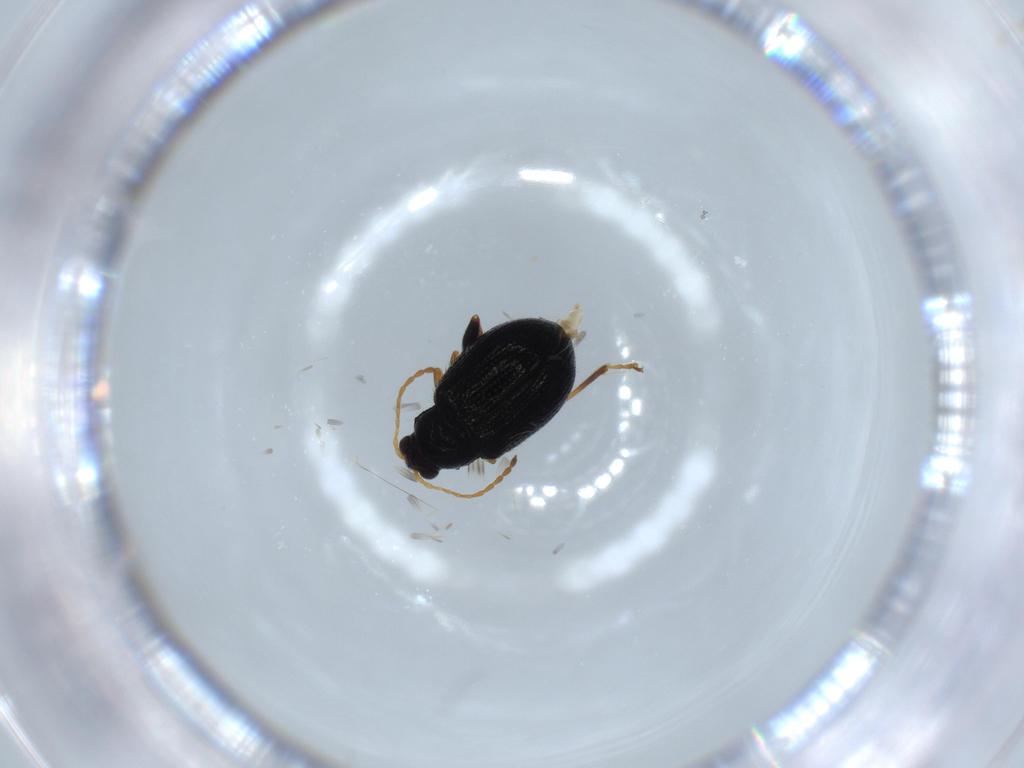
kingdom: Animalia
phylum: Arthropoda
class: Insecta
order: Coleoptera
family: Chrysomelidae
